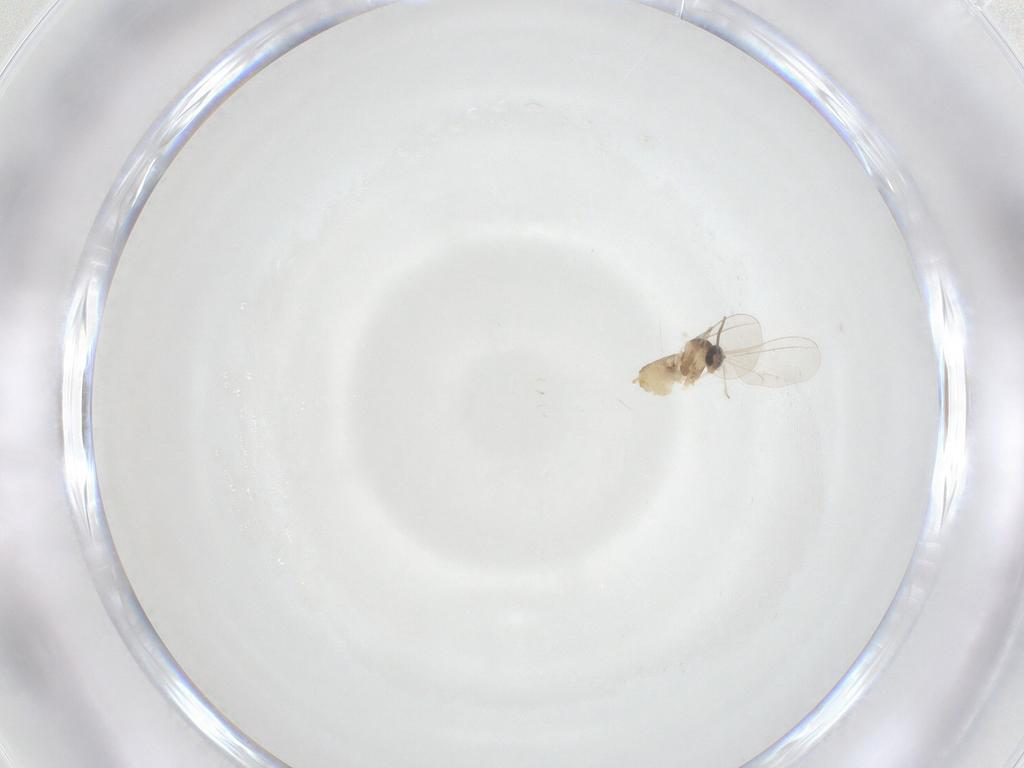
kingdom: Animalia
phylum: Arthropoda
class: Insecta
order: Diptera
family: Cecidomyiidae
